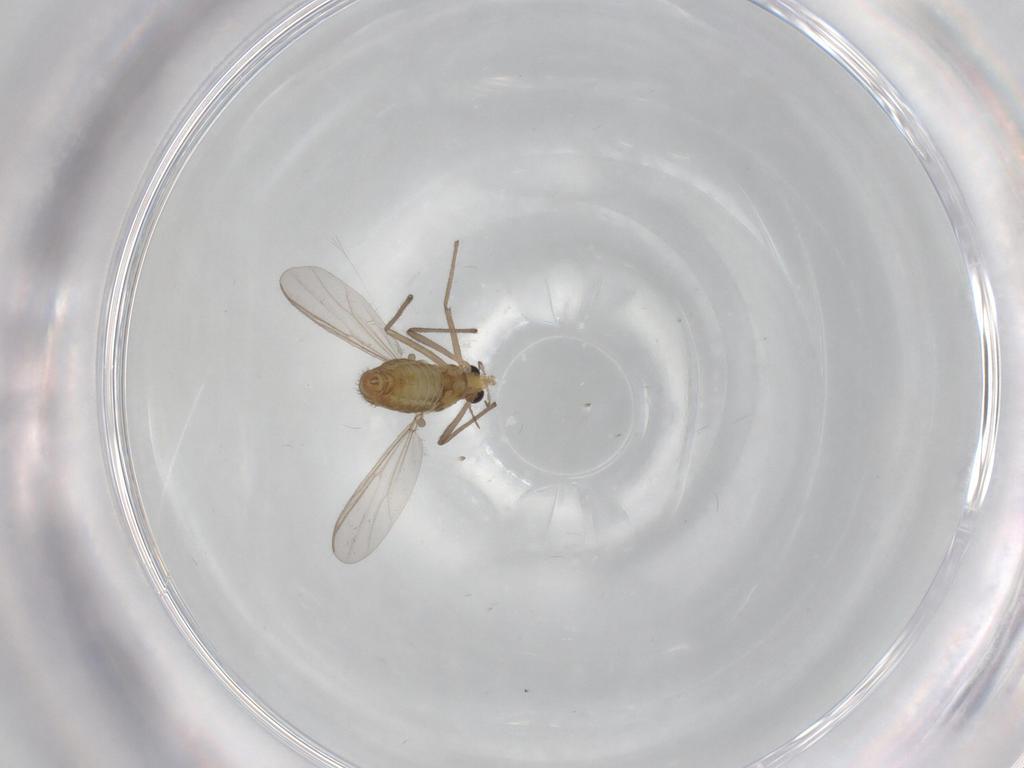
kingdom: Animalia
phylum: Arthropoda
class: Insecta
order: Diptera
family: Chironomidae
